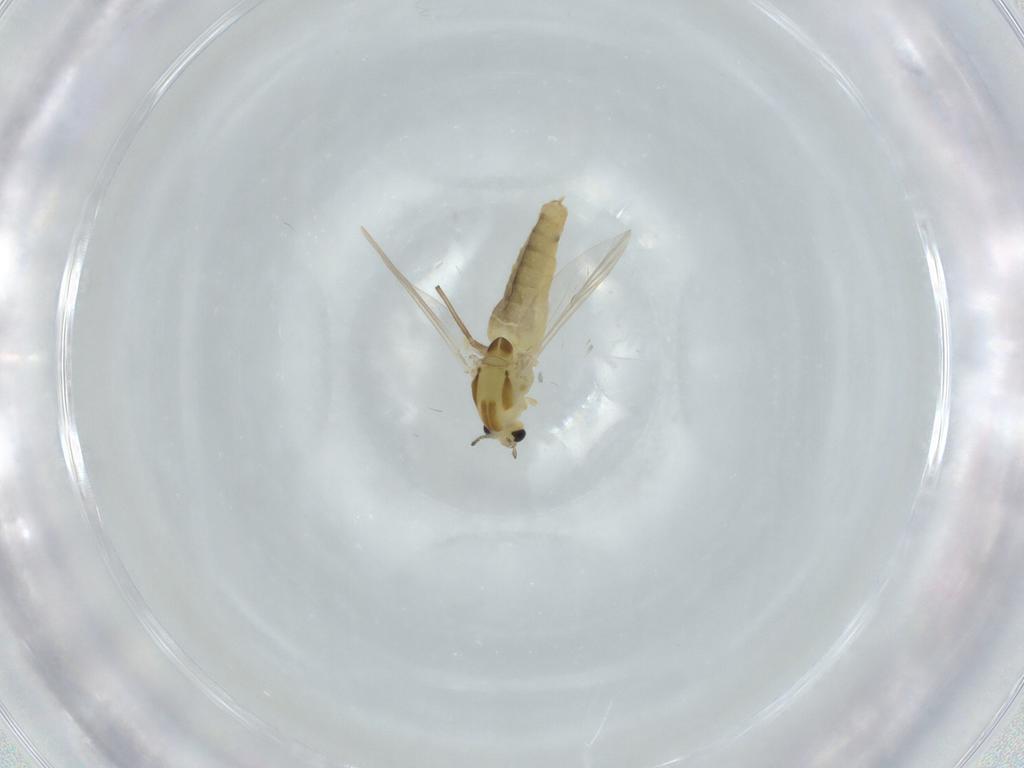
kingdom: Animalia
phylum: Arthropoda
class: Insecta
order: Diptera
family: Chironomidae
